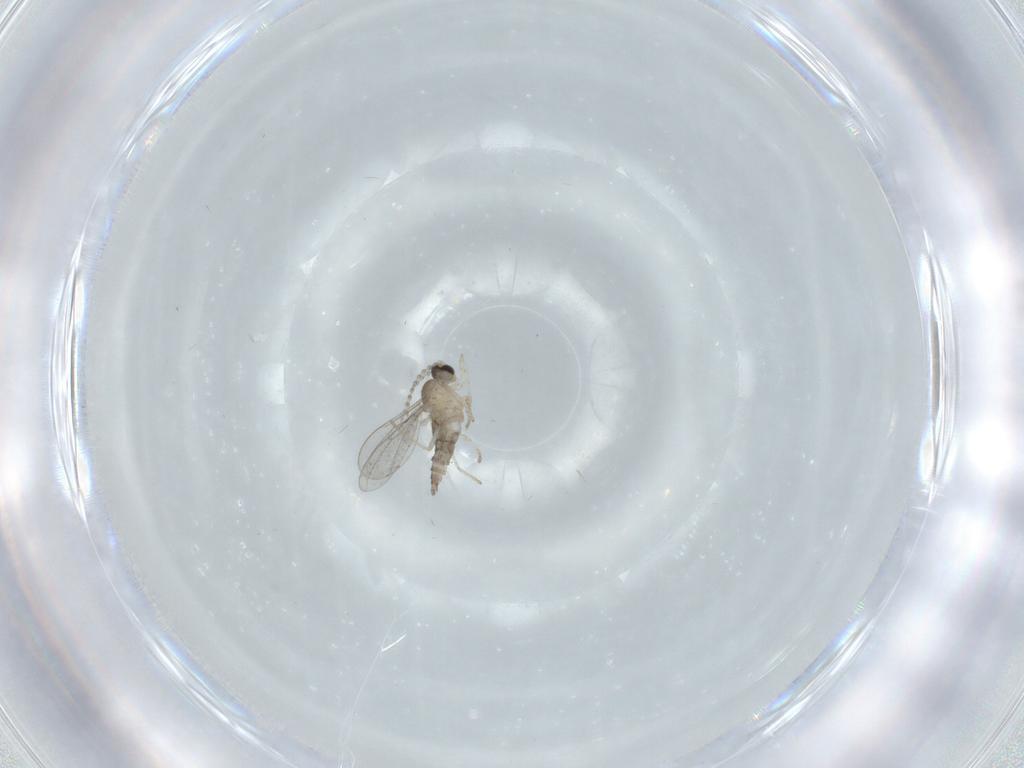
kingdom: Animalia
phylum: Arthropoda
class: Insecta
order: Diptera
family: Cecidomyiidae
